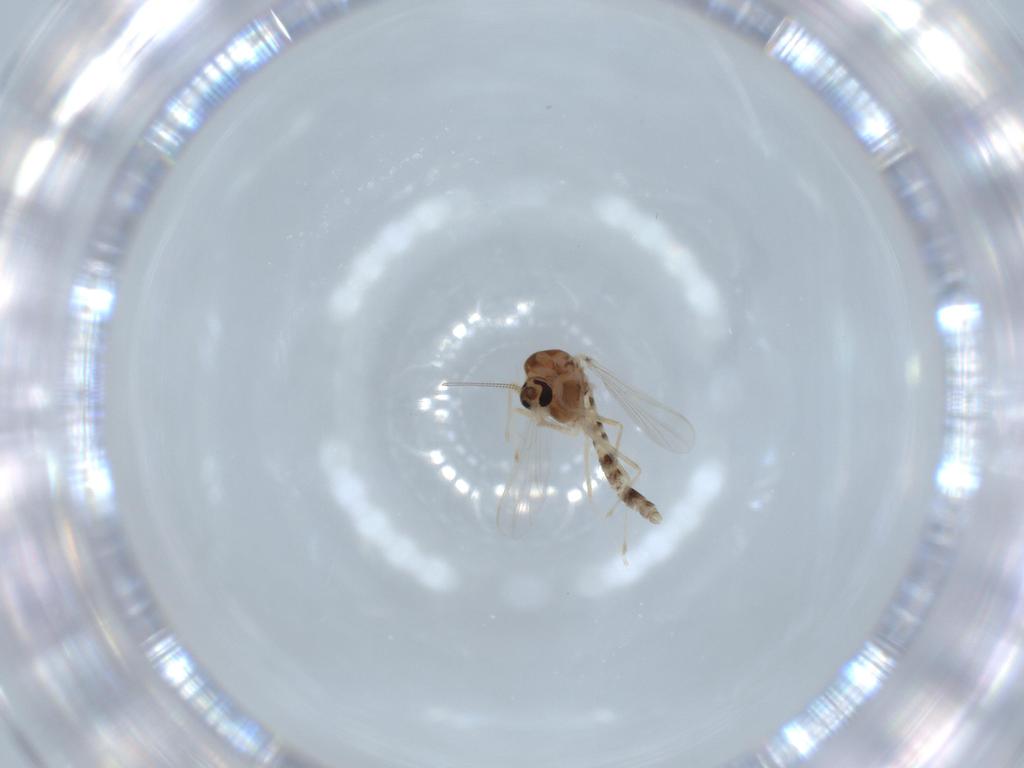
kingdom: Animalia
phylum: Arthropoda
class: Insecta
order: Diptera
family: Chironomidae
